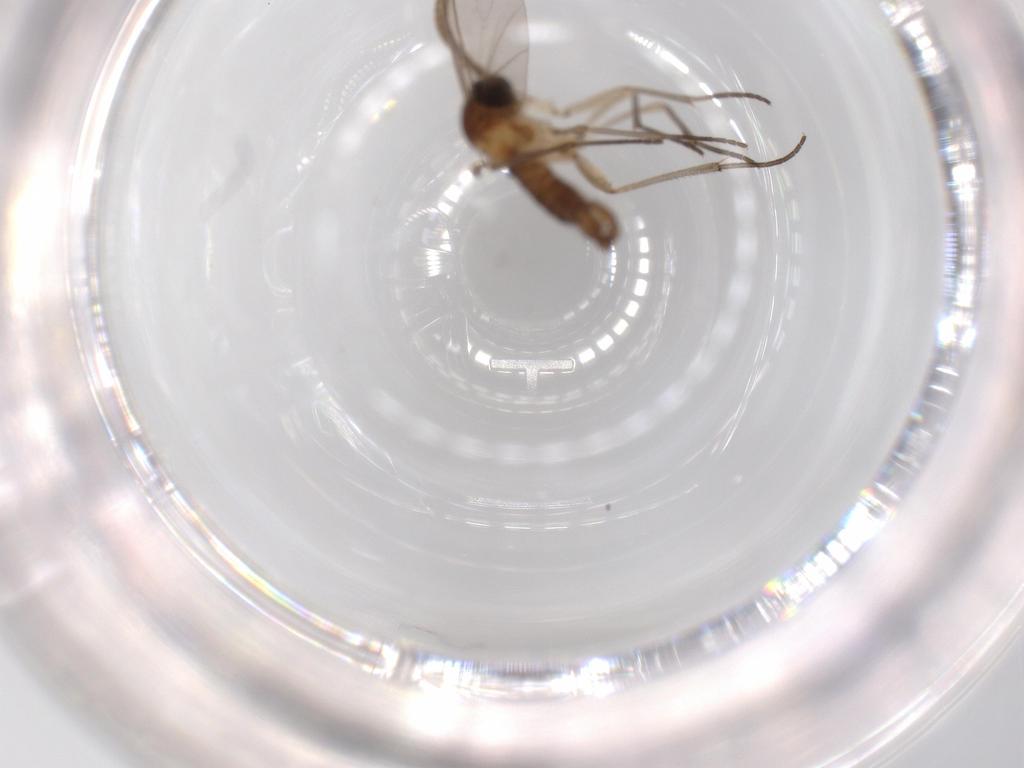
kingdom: Animalia
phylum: Arthropoda
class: Insecta
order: Diptera
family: Sciaridae
